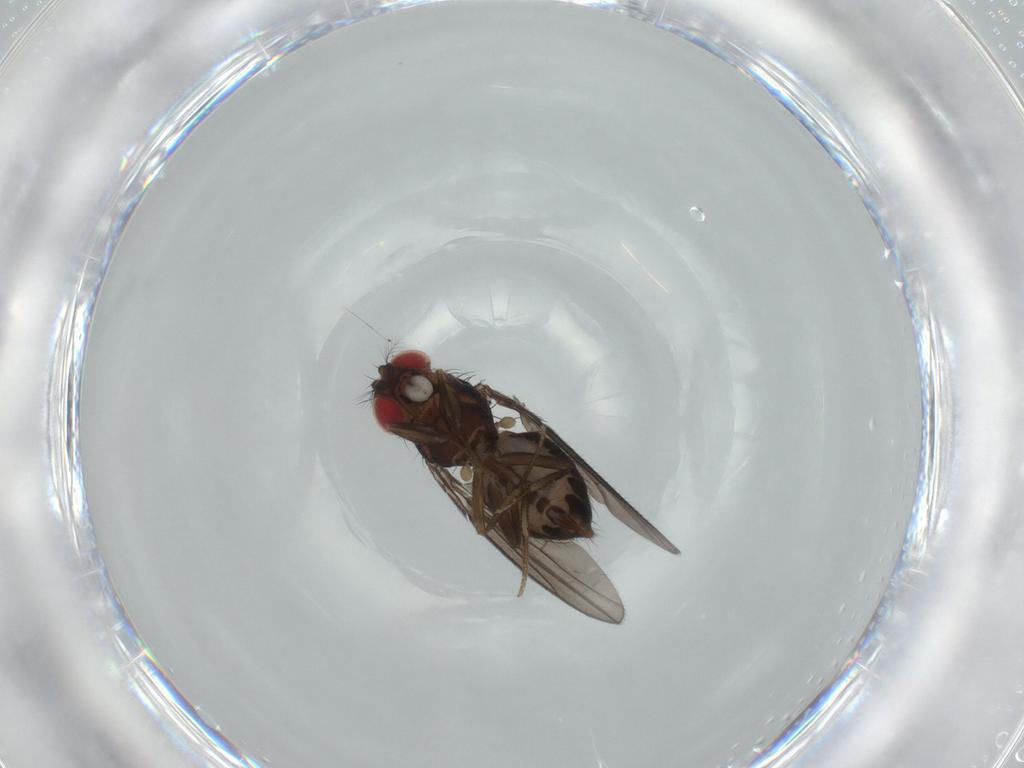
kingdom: Animalia
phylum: Arthropoda
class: Insecta
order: Diptera
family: Drosophilidae
